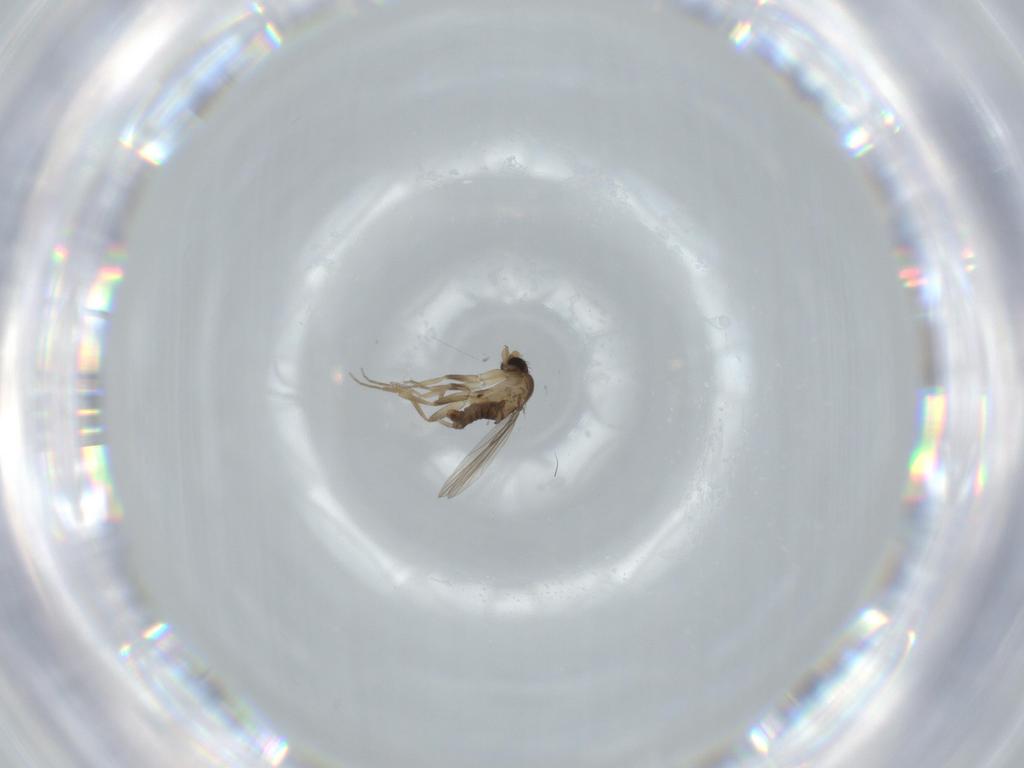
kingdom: Animalia
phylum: Arthropoda
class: Insecta
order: Diptera
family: Phoridae
